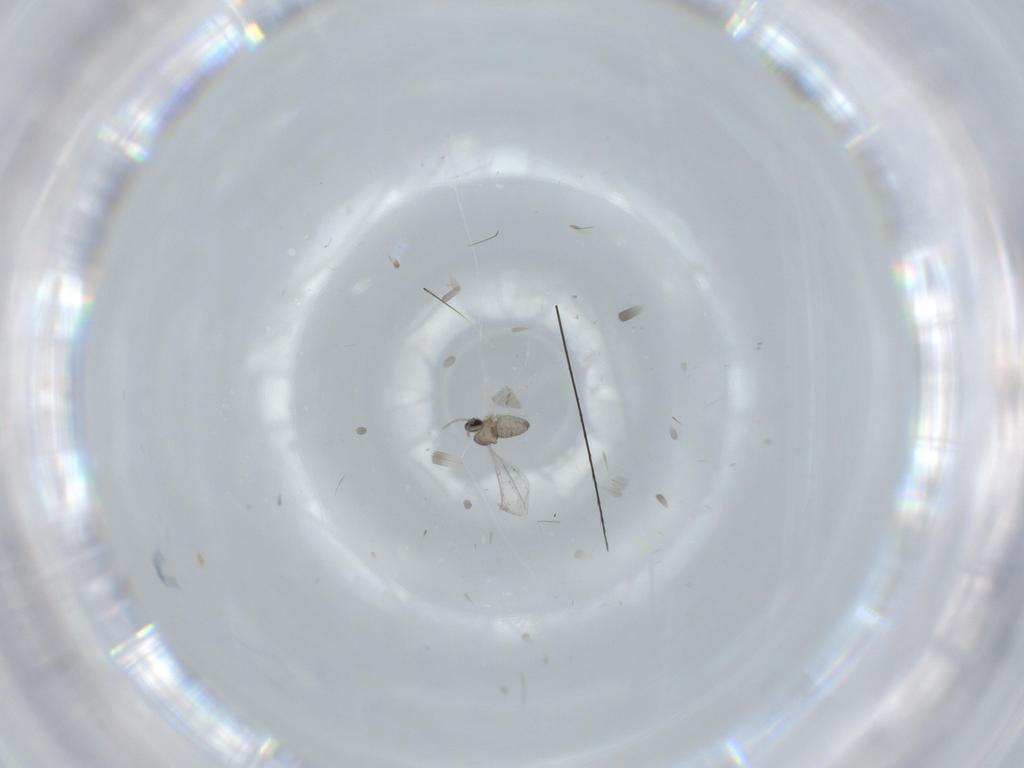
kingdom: Animalia
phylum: Arthropoda
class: Insecta
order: Diptera
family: Cecidomyiidae
